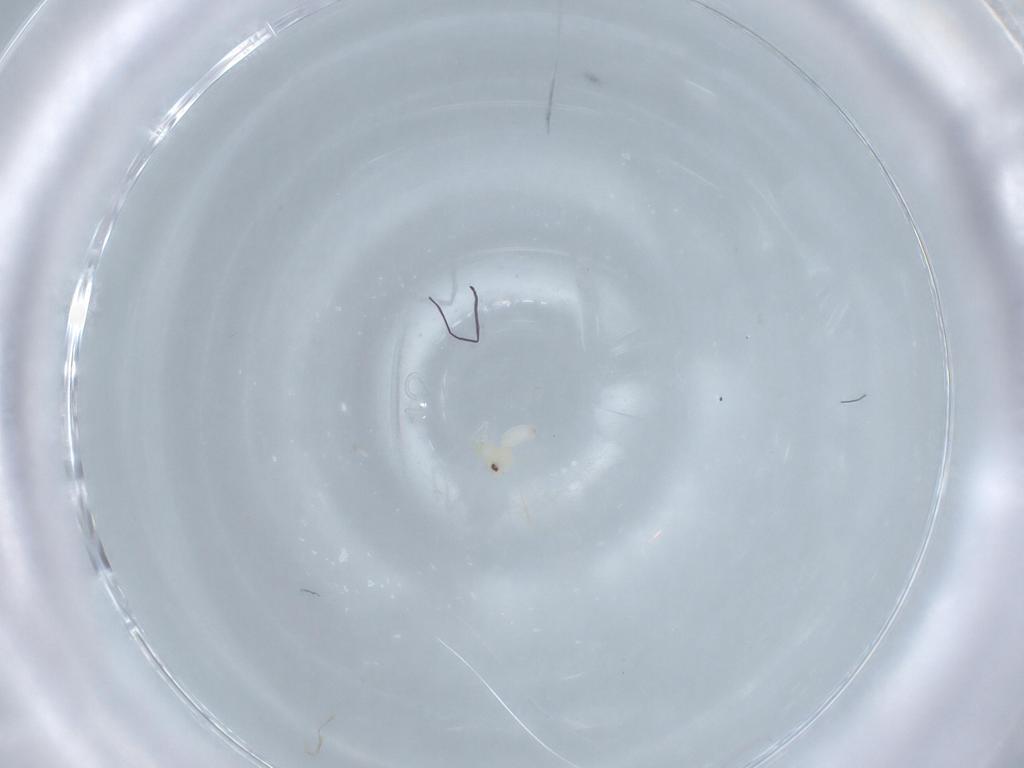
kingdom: Animalia
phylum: Arthropoda
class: Insecta
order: Hemiptera
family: Aleyrodidae
